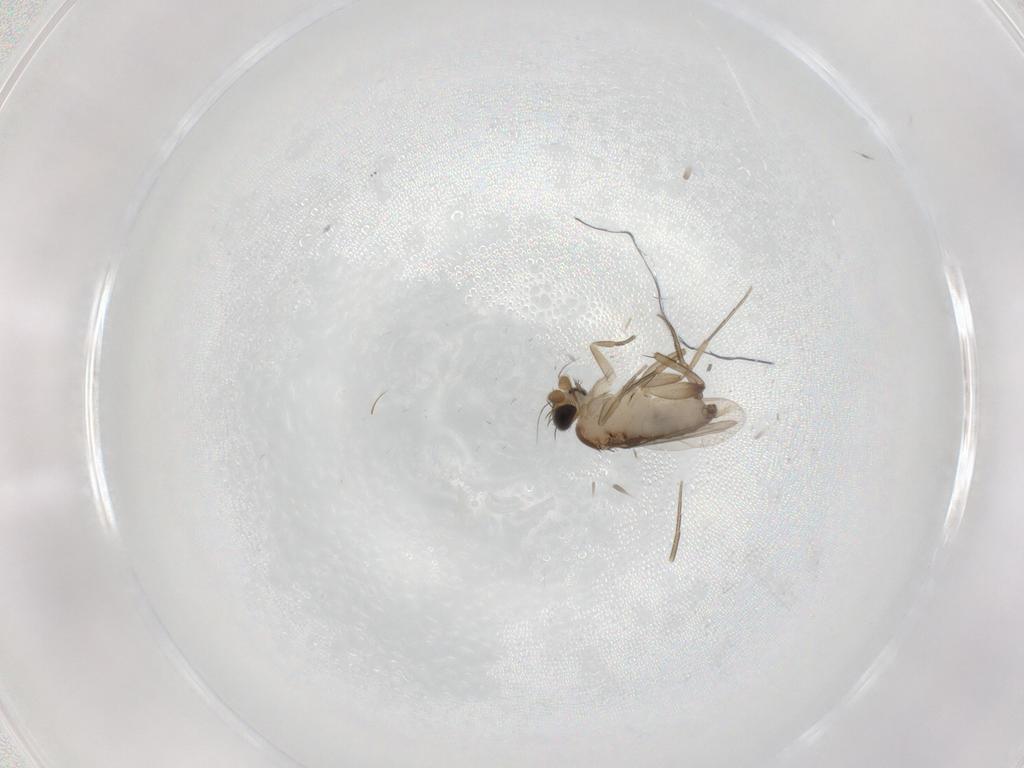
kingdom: Animalia
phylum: Arthropoda
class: Insecta
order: Diptera
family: Phoridae
